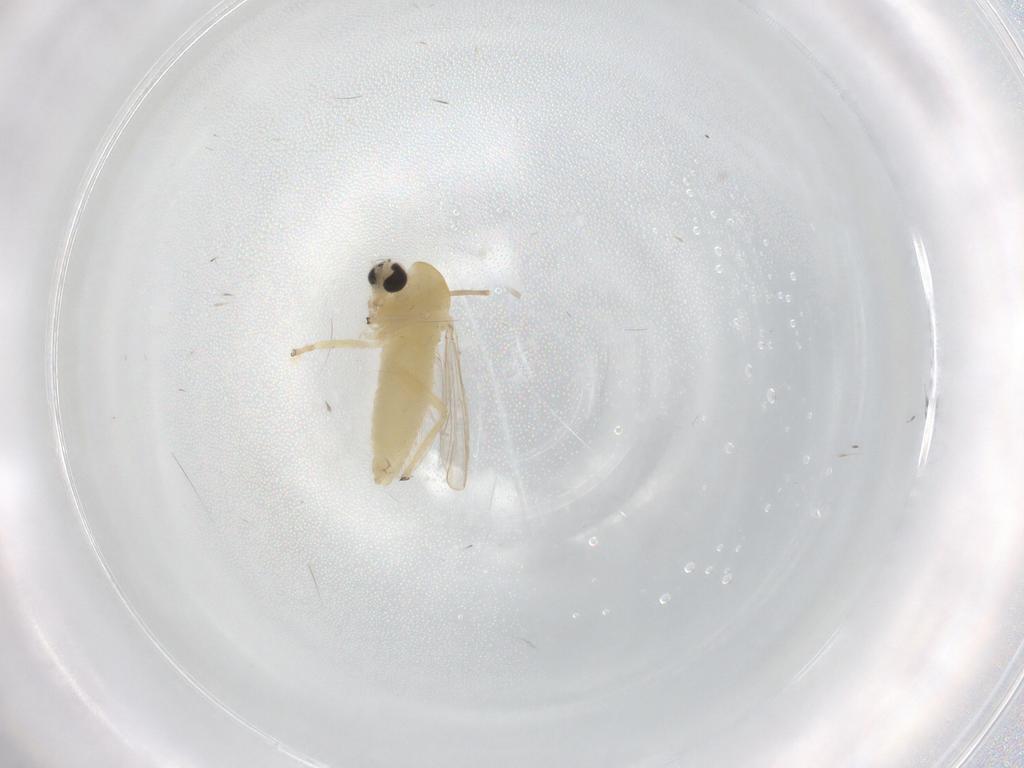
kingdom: Animalia
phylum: Arthropoda
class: Insecta
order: Diptera
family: Chironomidae
